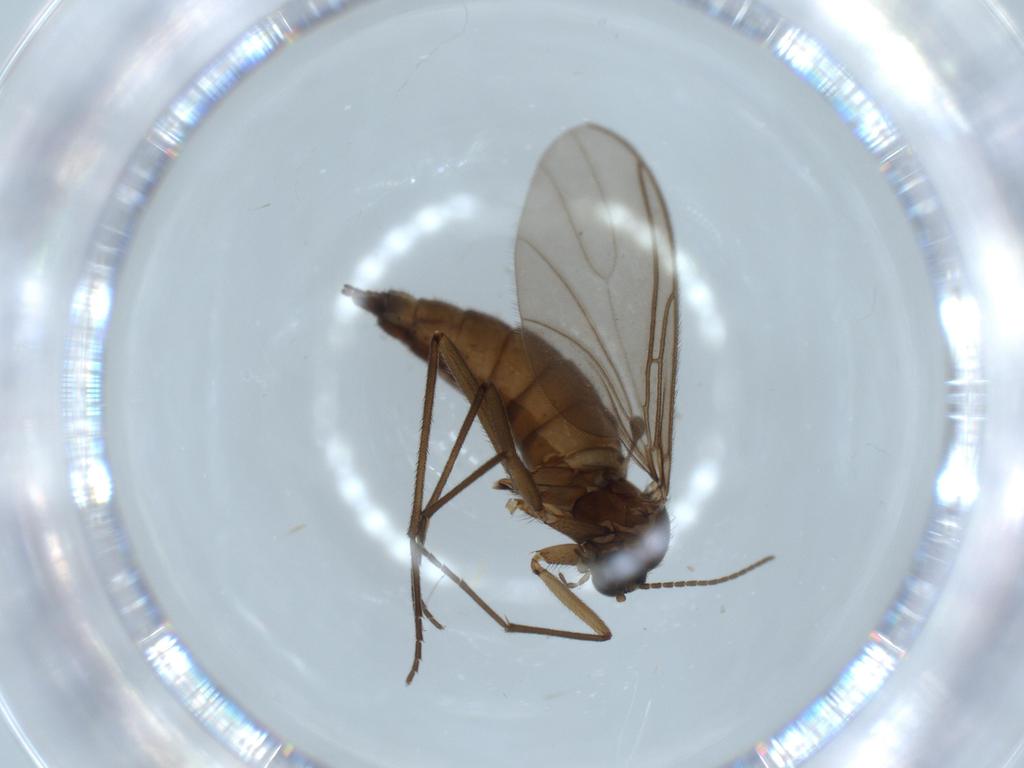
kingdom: Animalia
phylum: Arthropoda
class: Insecta
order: Diptera
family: Sciaridae
